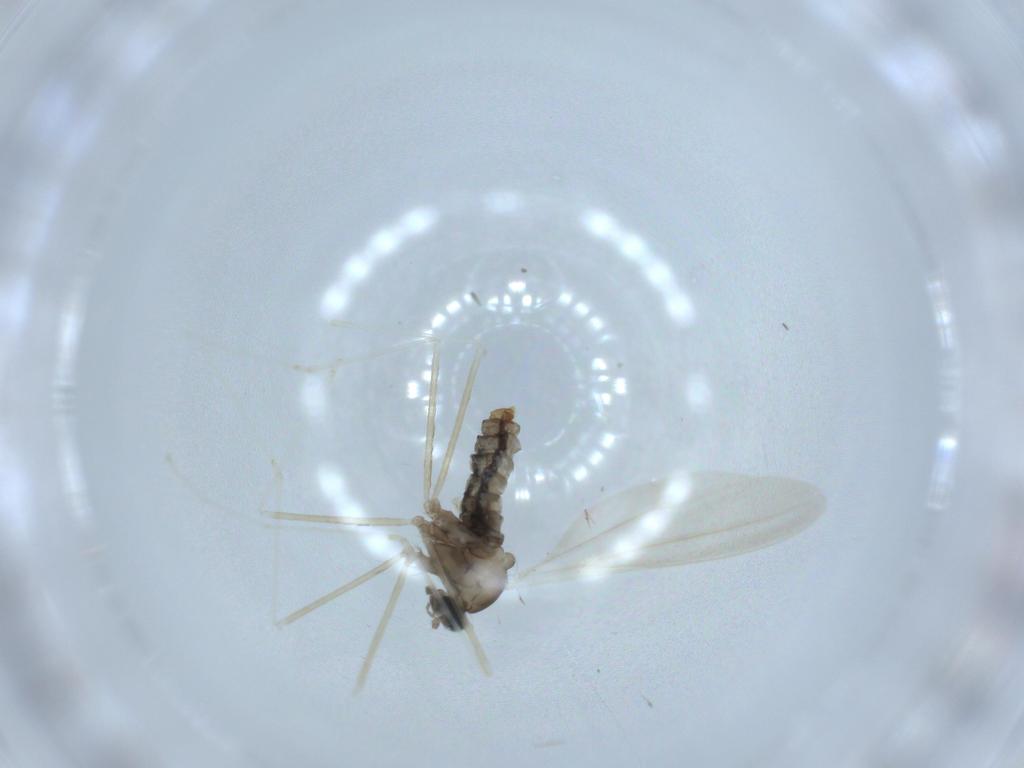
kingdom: Animalia
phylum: Arthropoda
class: Insecta
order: Diptera
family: Cecidomyiidae
